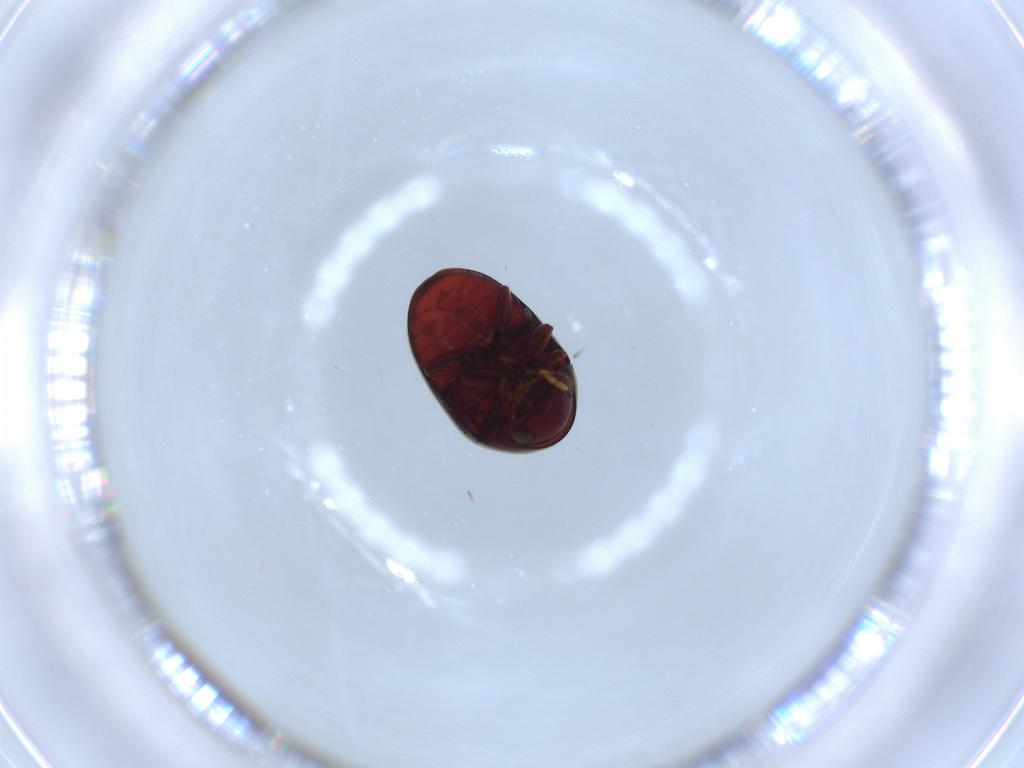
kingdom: Animalia
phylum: Arthropoda
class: Insecta
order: Coleoptera
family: Ptinidae
